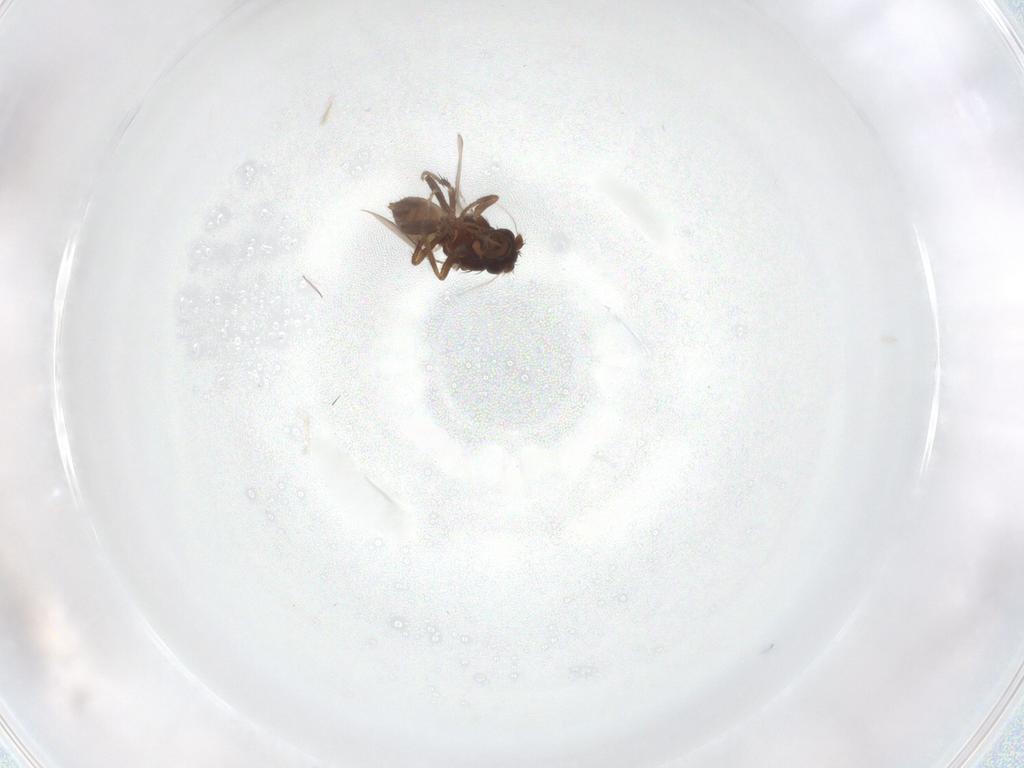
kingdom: Animalia
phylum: Arthropoda
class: Insecta
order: Diptera
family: Sphaeroceridae
